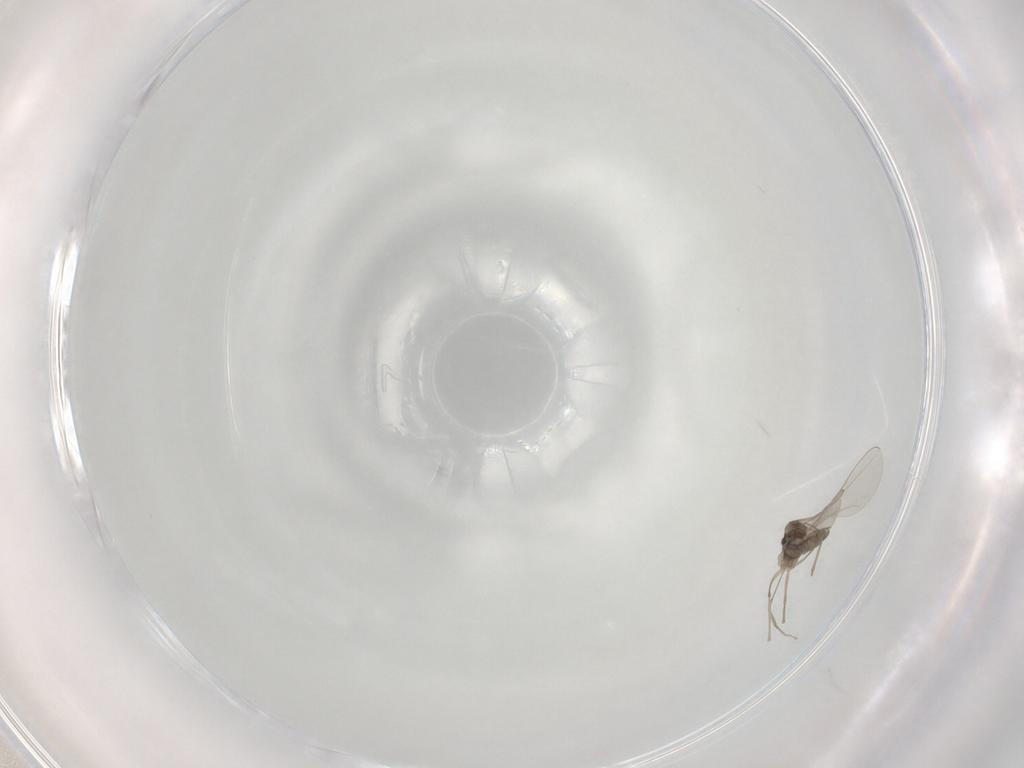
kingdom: Animalia
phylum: Arthropoda
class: Insecta
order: Diptera
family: Cecidomyiidae
